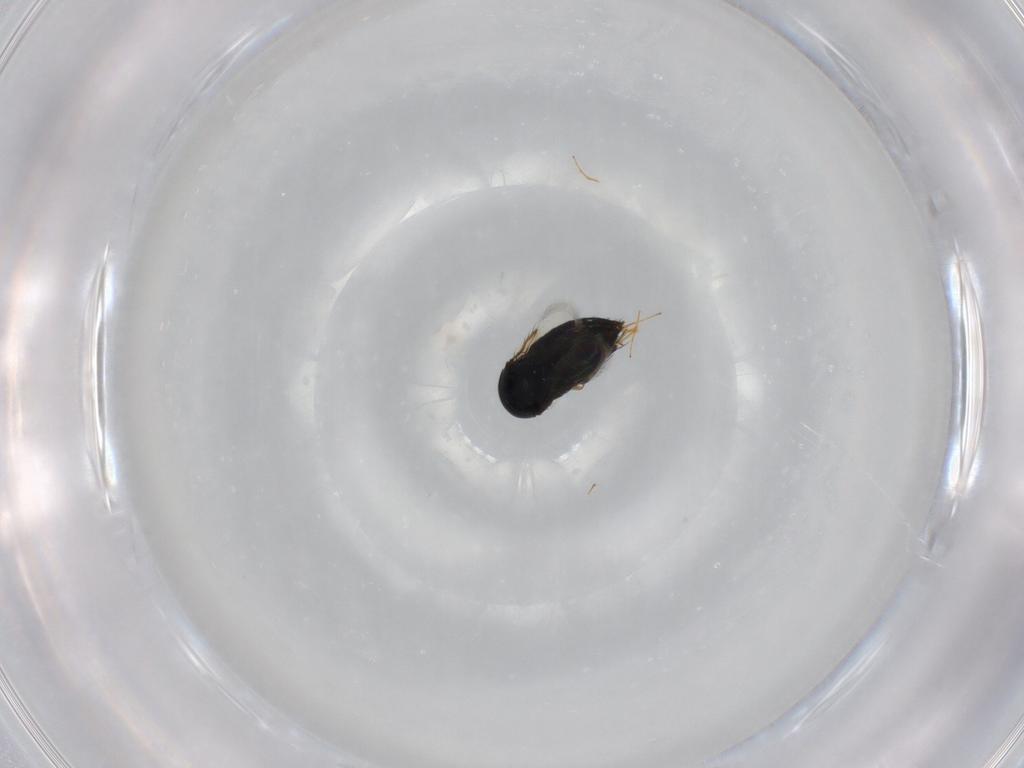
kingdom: Animalia
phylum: Arthropoda
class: Insecta
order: Hymenoptera
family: Signiphoridae
